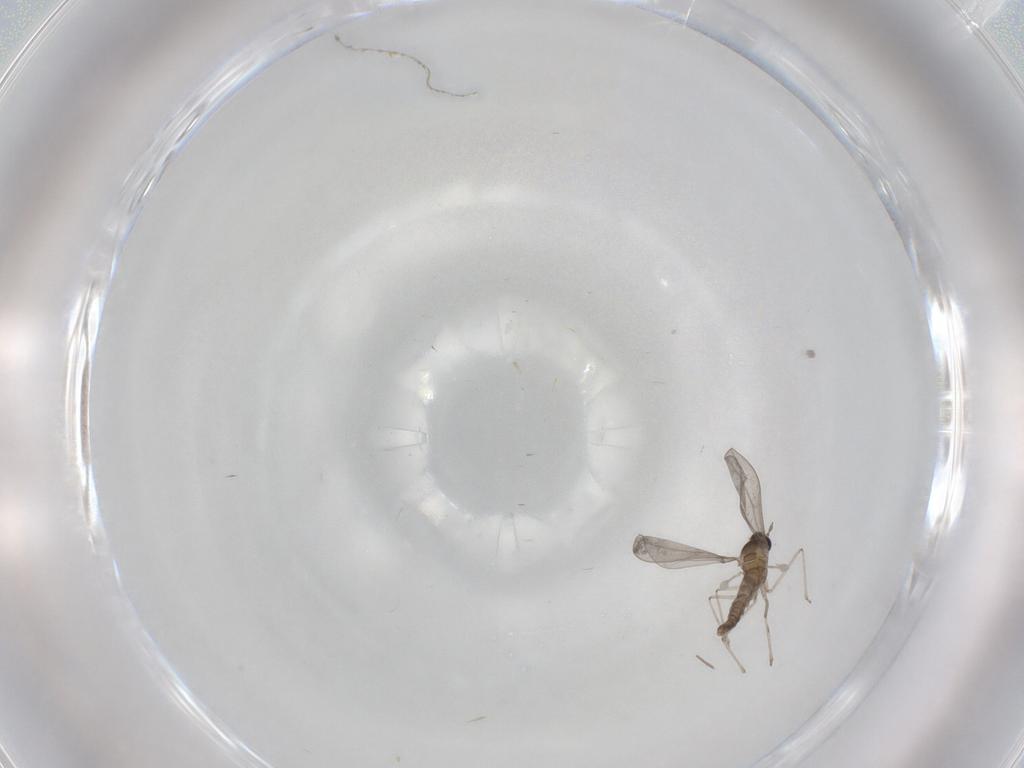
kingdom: Animalia
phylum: Arthropoda
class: Insecta
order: Diptera
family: Cecidomyiidae
